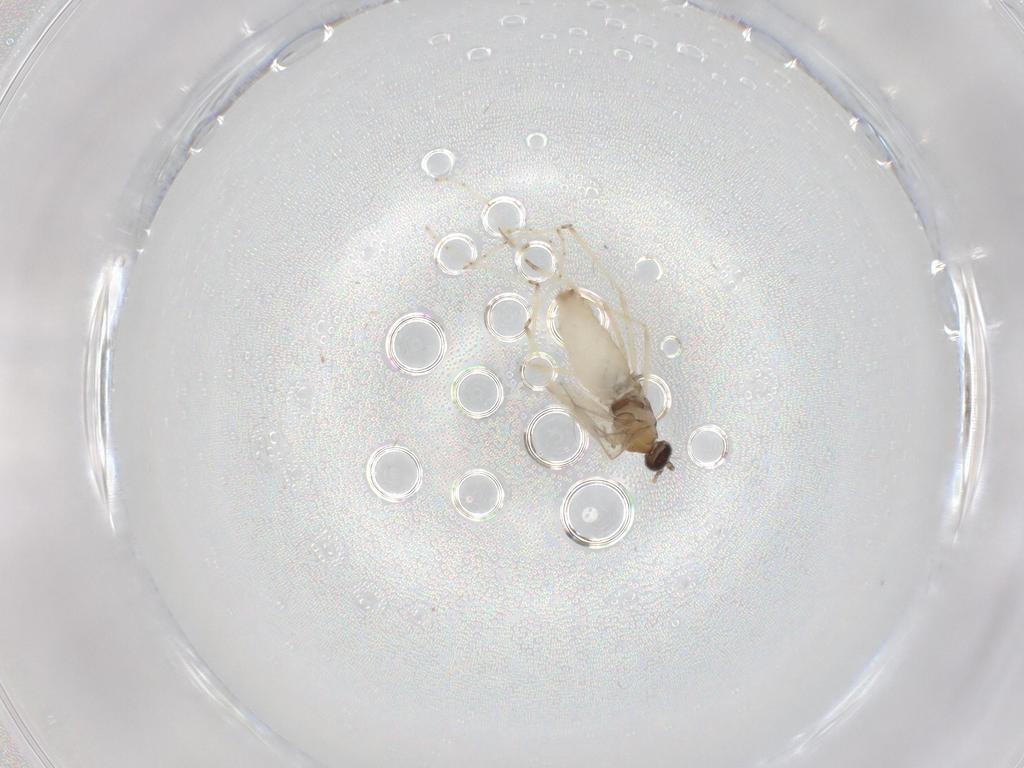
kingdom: Animalia
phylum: Arthropoda
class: Insecta
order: Diptera
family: Cecidomyiidae
